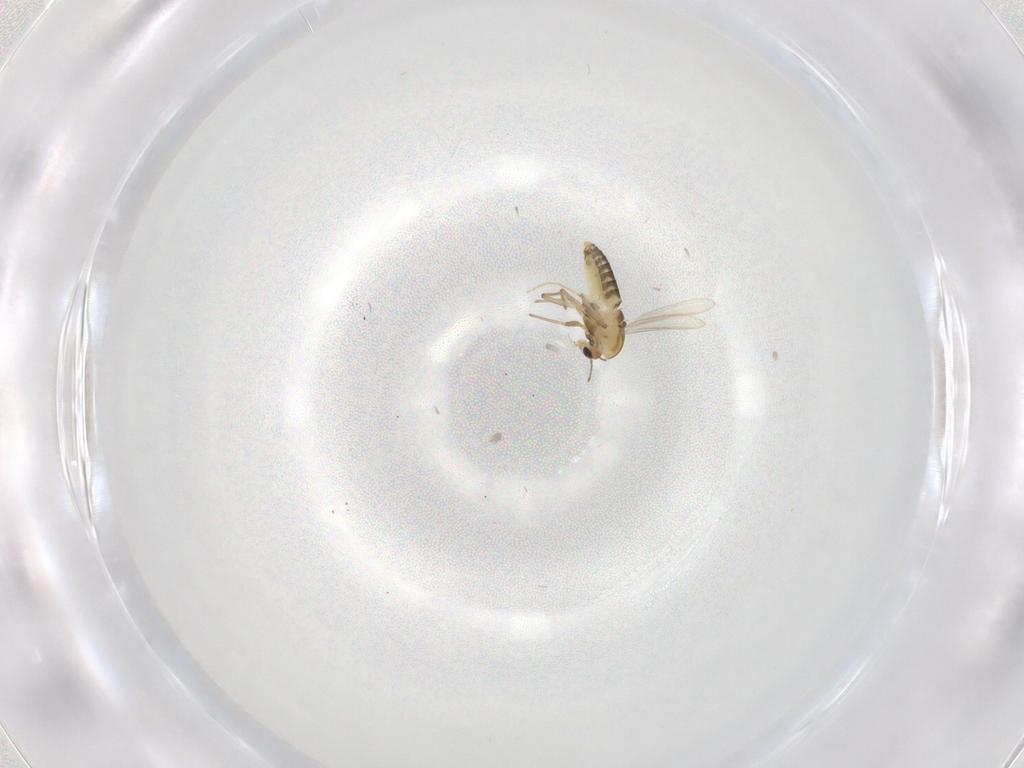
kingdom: Animalia
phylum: Arthropoda
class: Insecta
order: Diptera
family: Chironomidae
